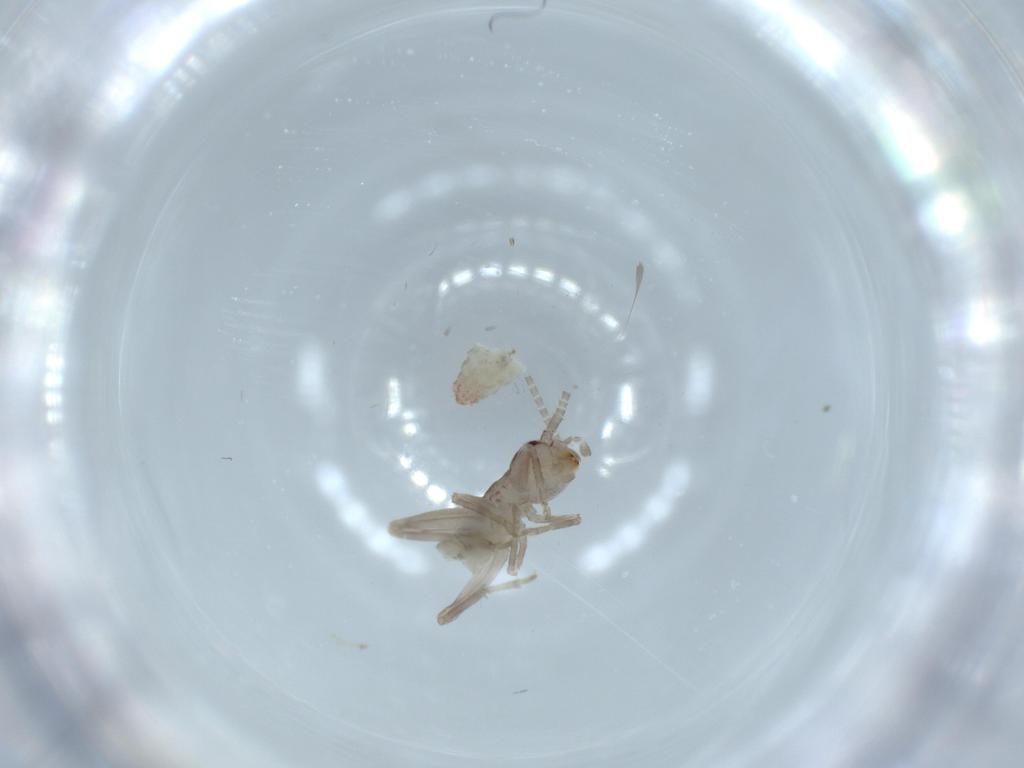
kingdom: Animalia
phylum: Arthropoda
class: Insecta
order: Orthoptera
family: Mogoplistidae
